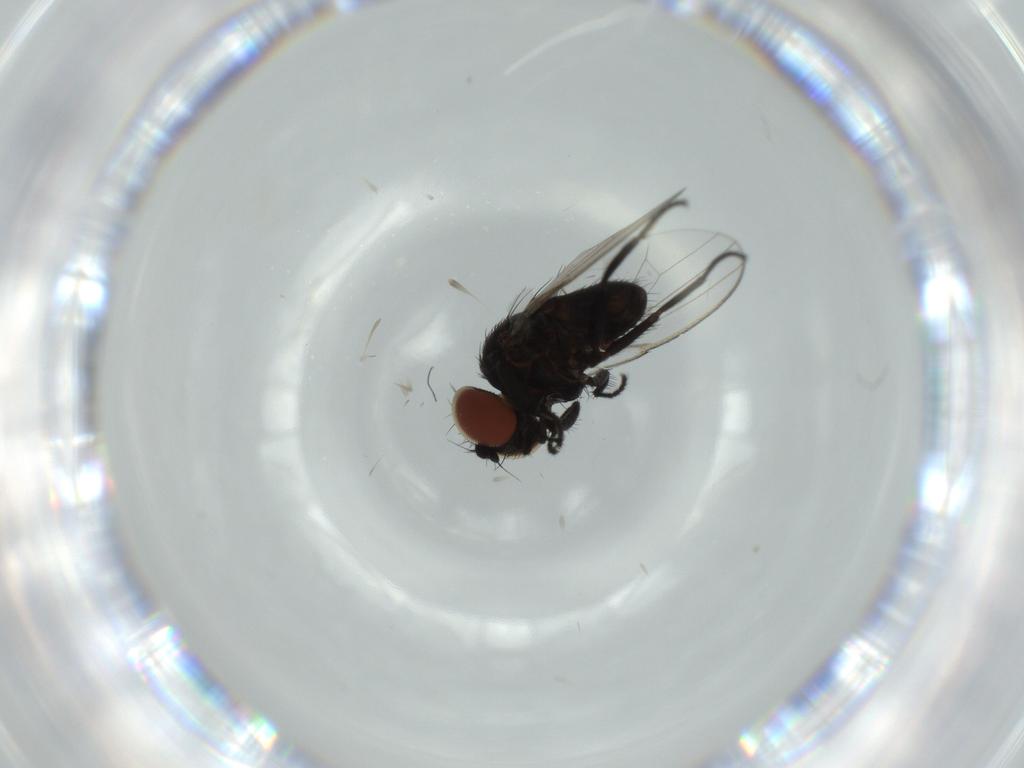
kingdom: Animalia
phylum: Arthropoda
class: Insecta
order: Diptera
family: Milichiidae
